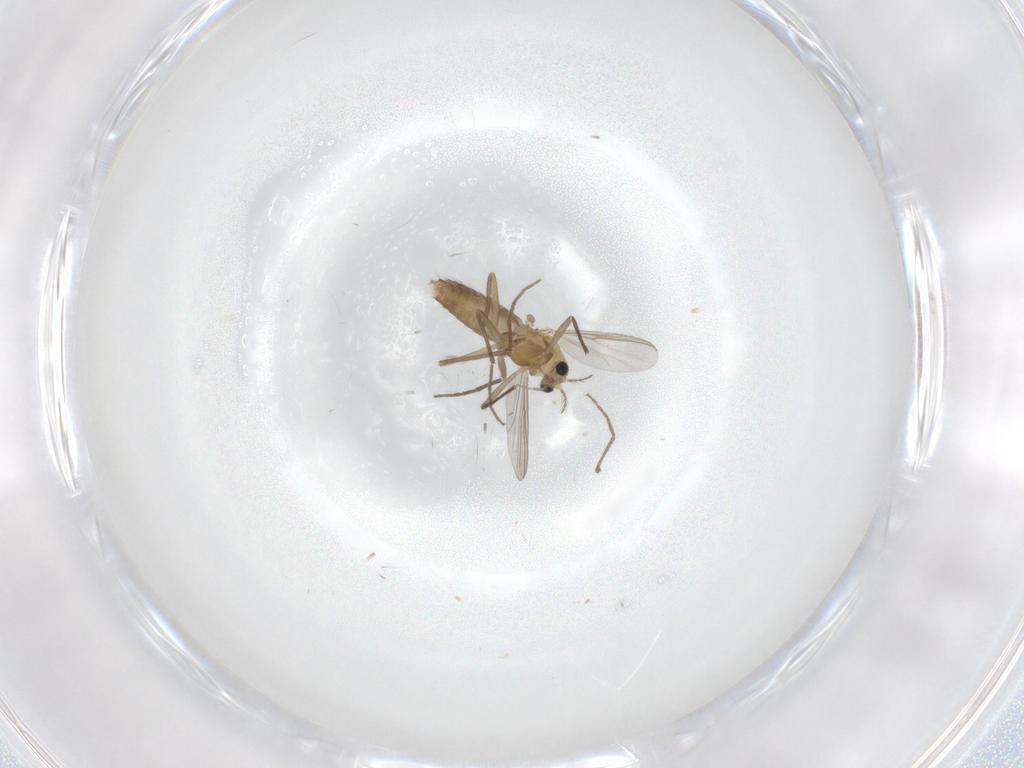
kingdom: Animalia
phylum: Arthropoda
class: Insecta
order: Diptera
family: Chironomidae
